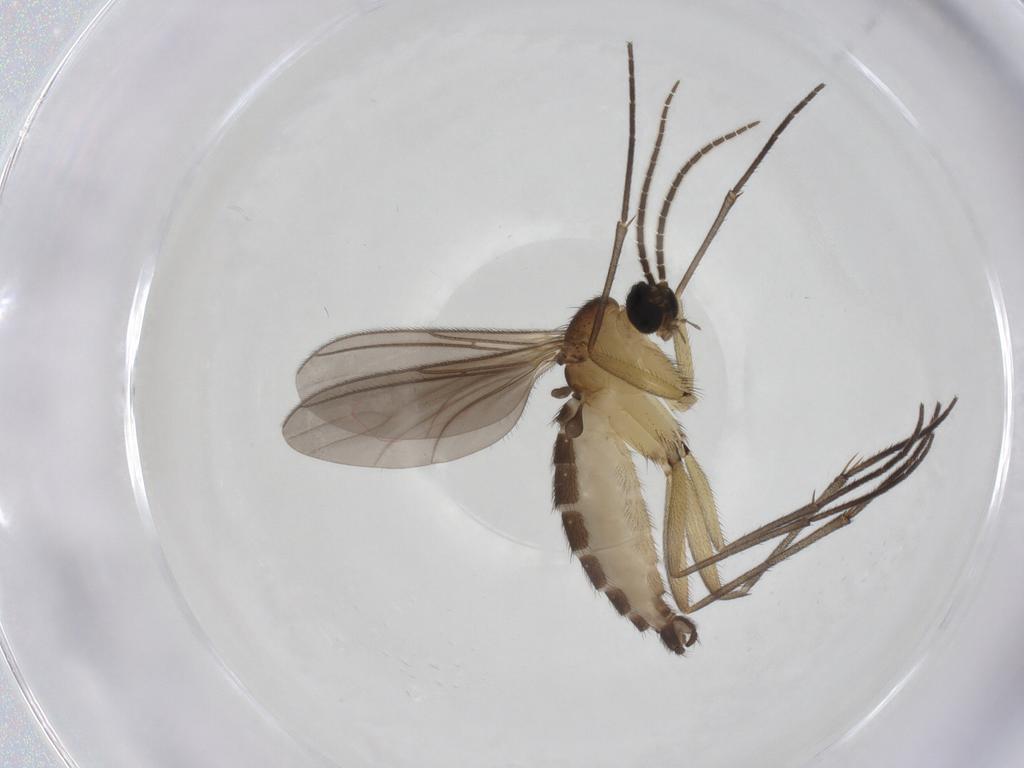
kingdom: Animalia
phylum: Arthropoda
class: Insecta
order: Diptera
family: Sciaridae
